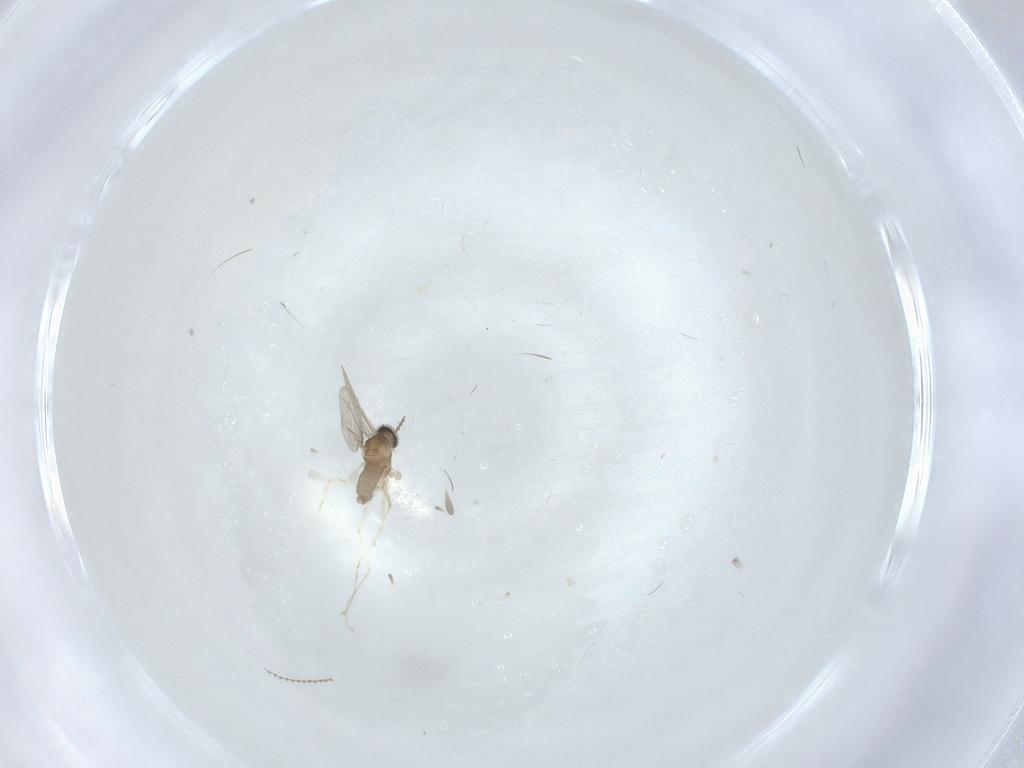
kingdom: Animalia
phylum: Arthropoda
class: Insecta
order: Diptera
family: Cecidomyiidae
